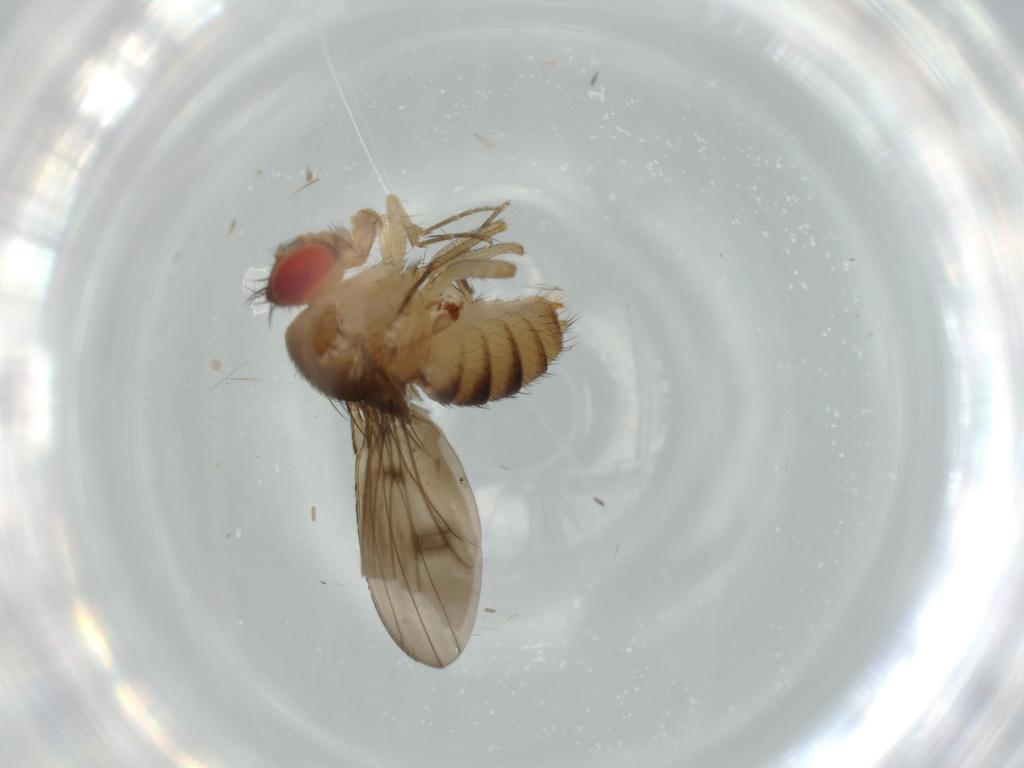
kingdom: Animalia
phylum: Arthropoda
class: Insecta
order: Diptera
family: Drosophilidae
